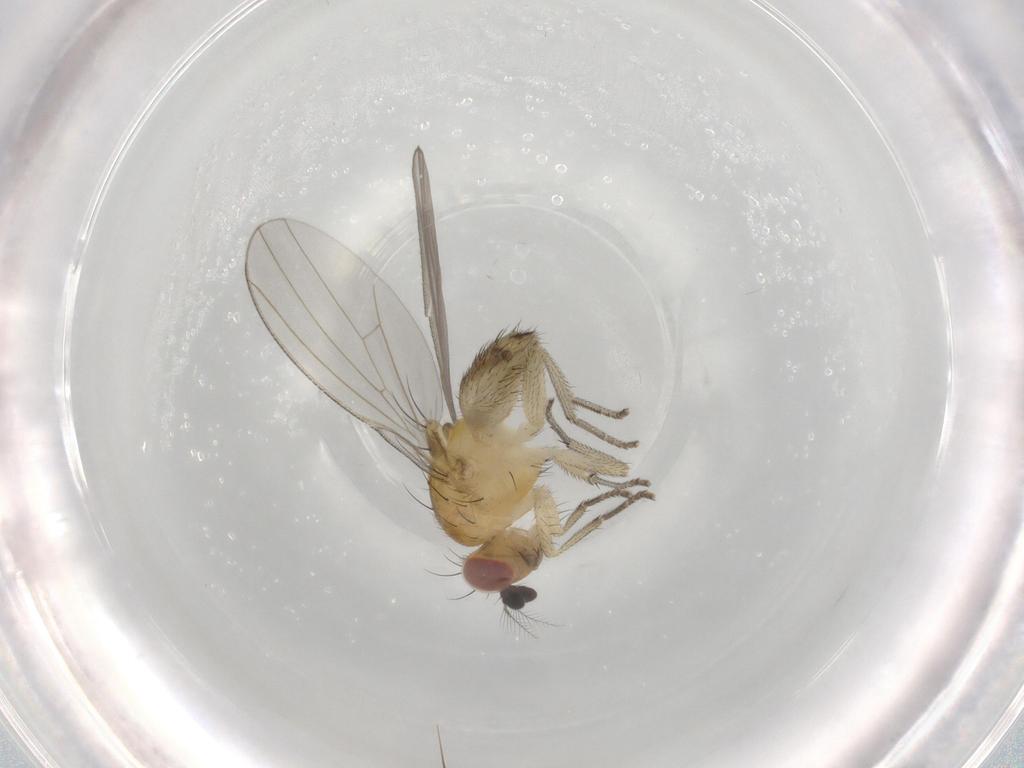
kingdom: Animalia
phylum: Arthropoda
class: Insecta
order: Diptera
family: Lauxaniidae
